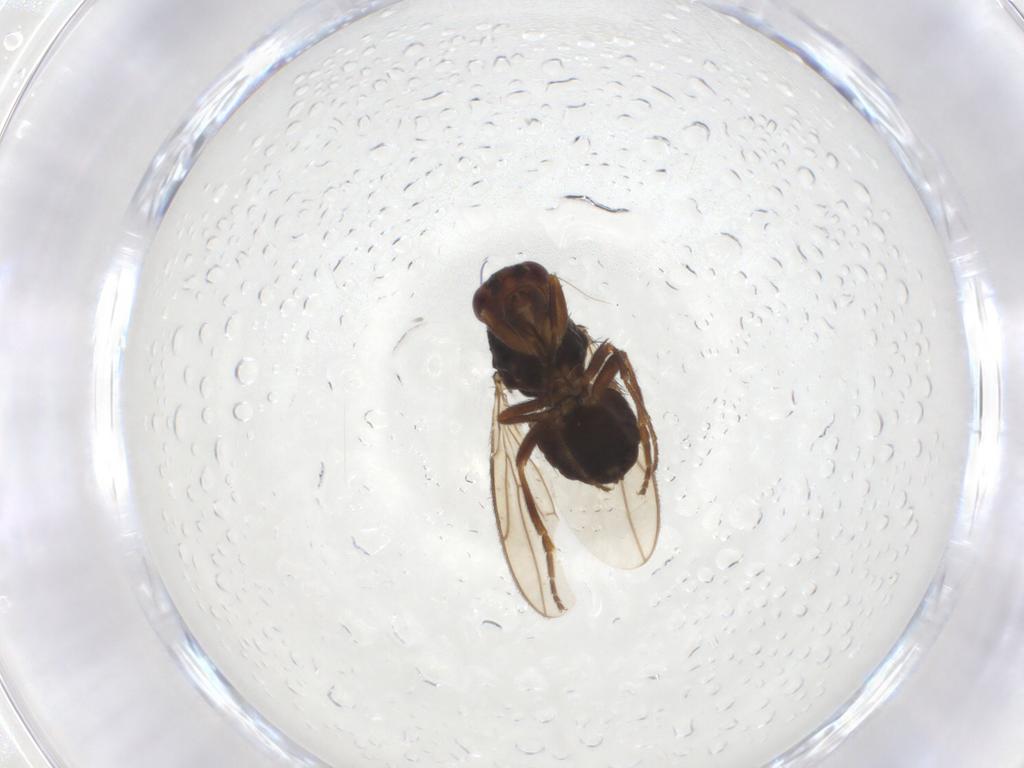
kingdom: Animalia
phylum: Arthropoda
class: Insecta
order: Diptera
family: Sphaeroceridae
